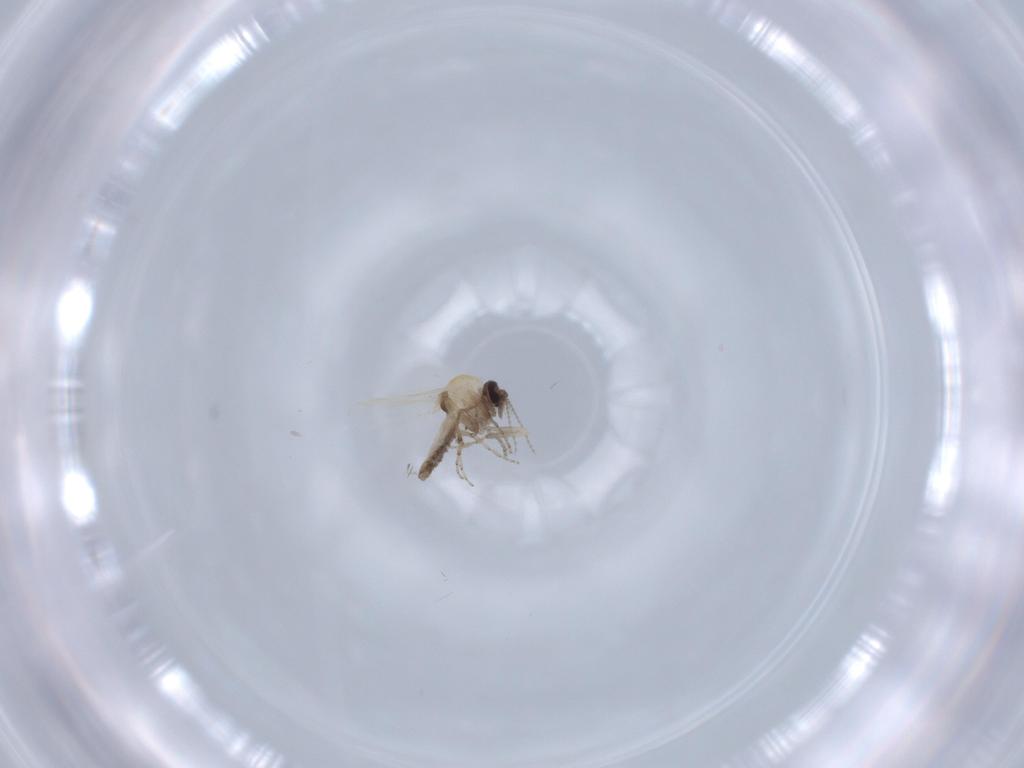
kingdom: Animalia
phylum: Arthropoda
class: Insecta
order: Diptera
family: Ceratopogonidae
